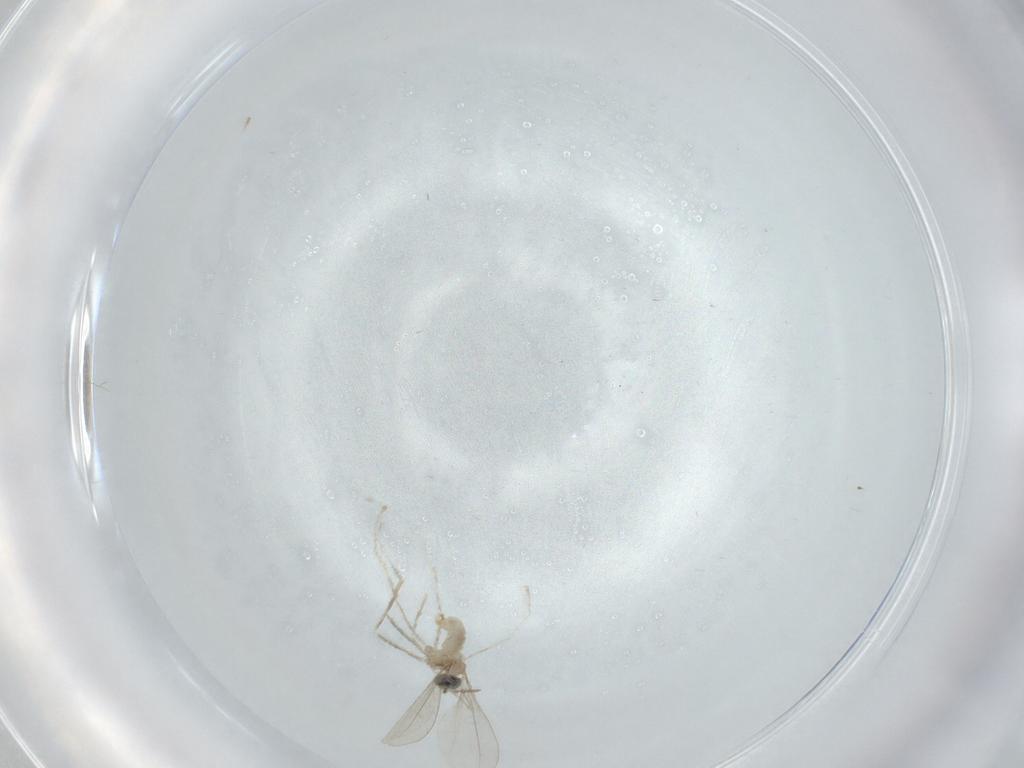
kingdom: Animalia
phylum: Arthropoda
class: Insecta
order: Diptera
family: Cecidomyiidae
